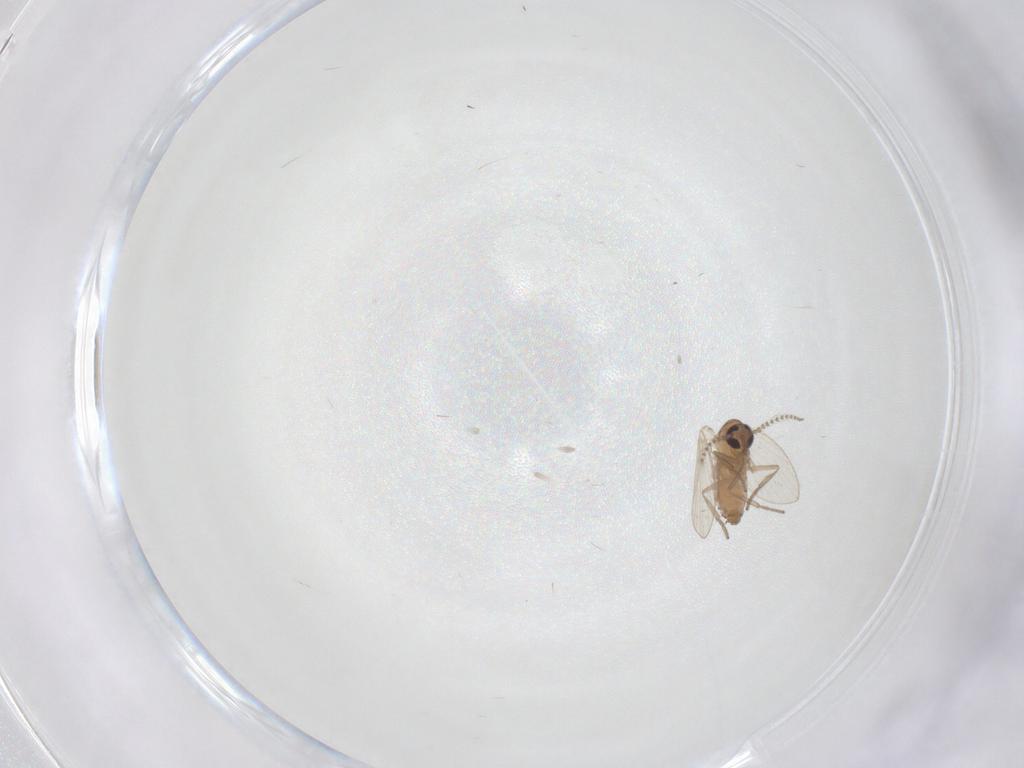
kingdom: Animalia
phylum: Arthropoda
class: Insecta
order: Diptera
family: Psychodidae
